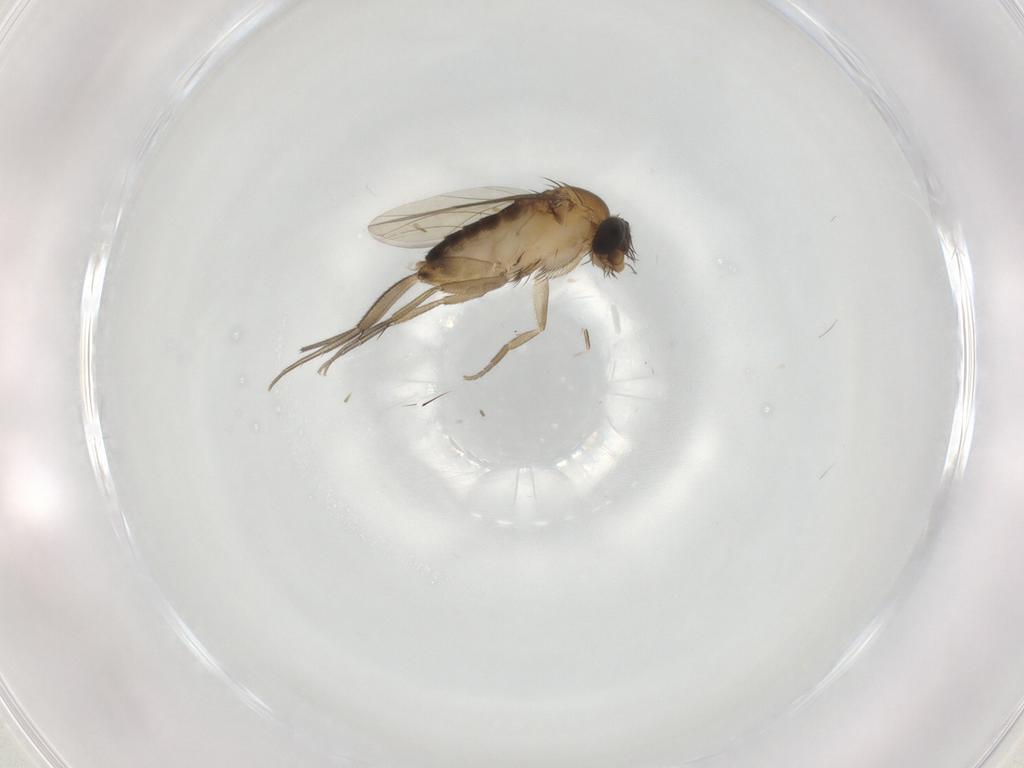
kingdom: Animalia
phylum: Arthropoda
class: Insecta
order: Diptera
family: Phoridae
